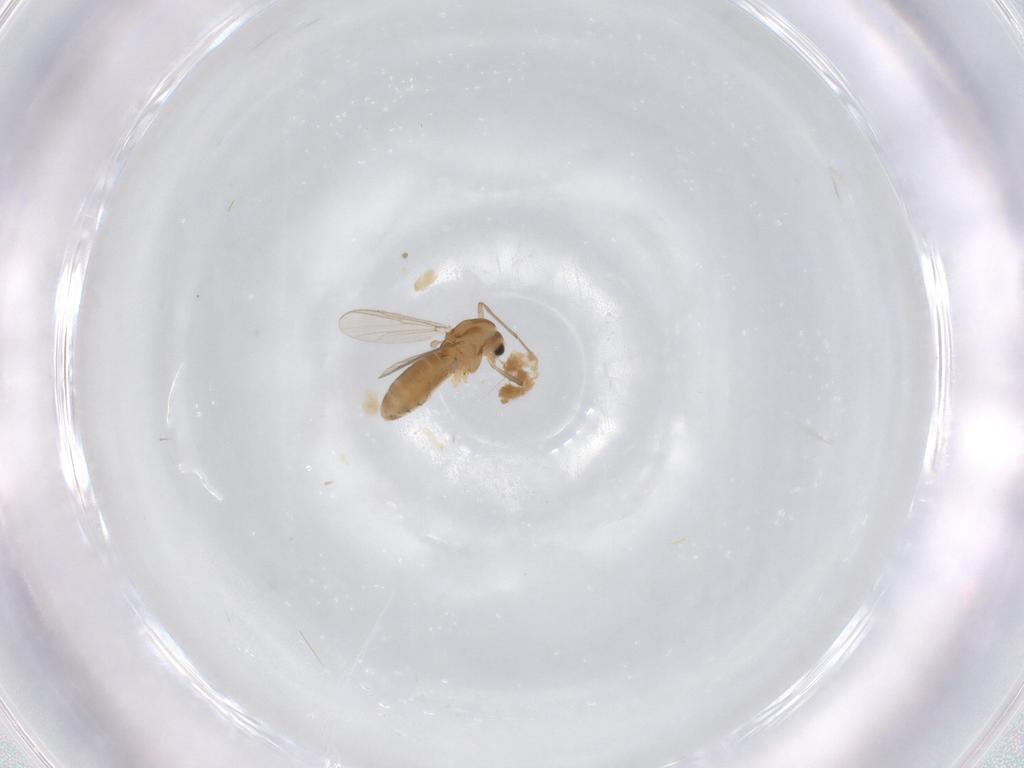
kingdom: Animalia
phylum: Arthropoda
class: Insecta
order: Diptera
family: Chironomidae
